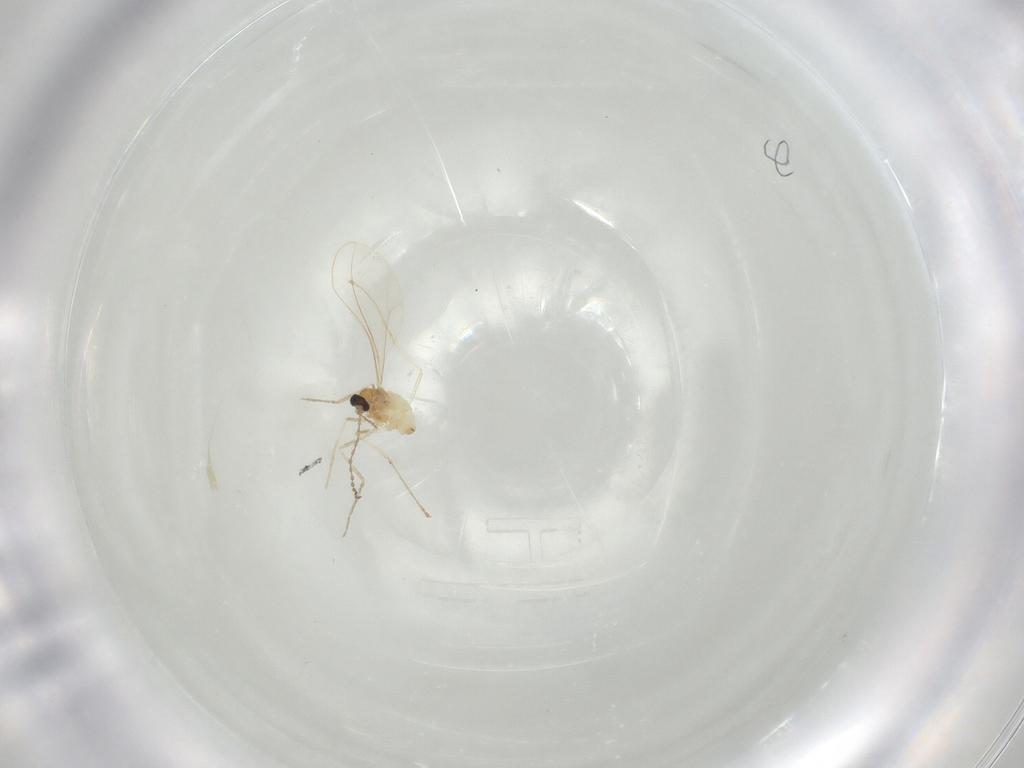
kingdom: Animalia
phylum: Arthropoda
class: Insecta
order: Diptera
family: Cecidomyiidae
